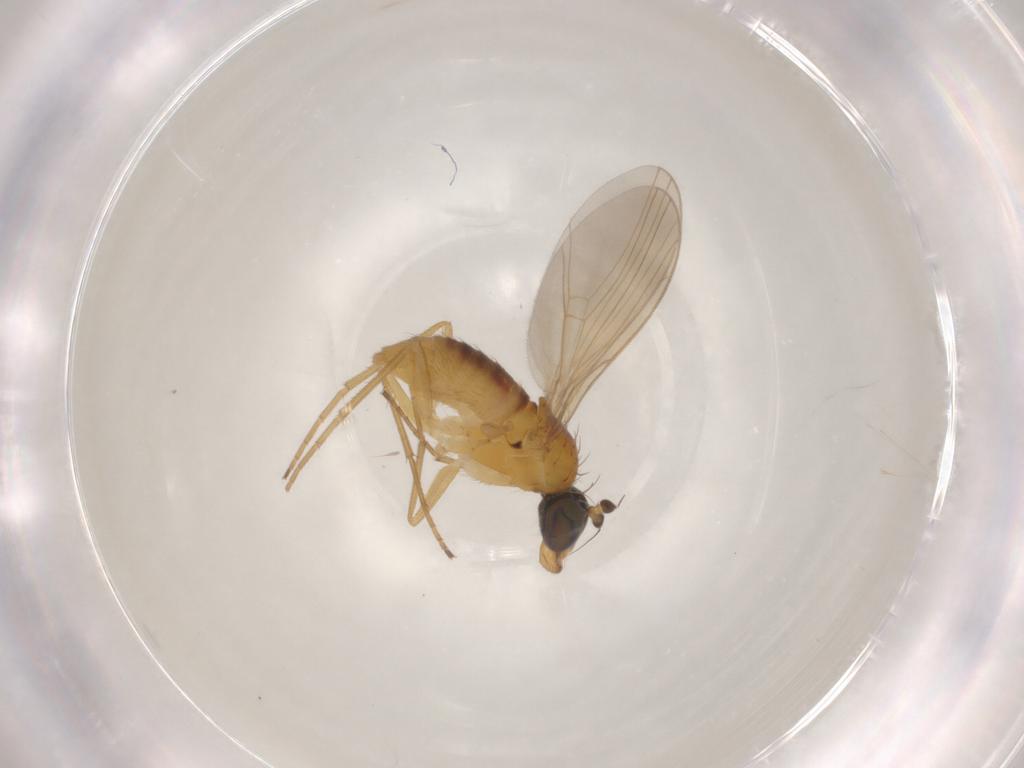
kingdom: Animalia
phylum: Arthropoda
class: Insecta
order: Diptera
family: Dolichopodidae
